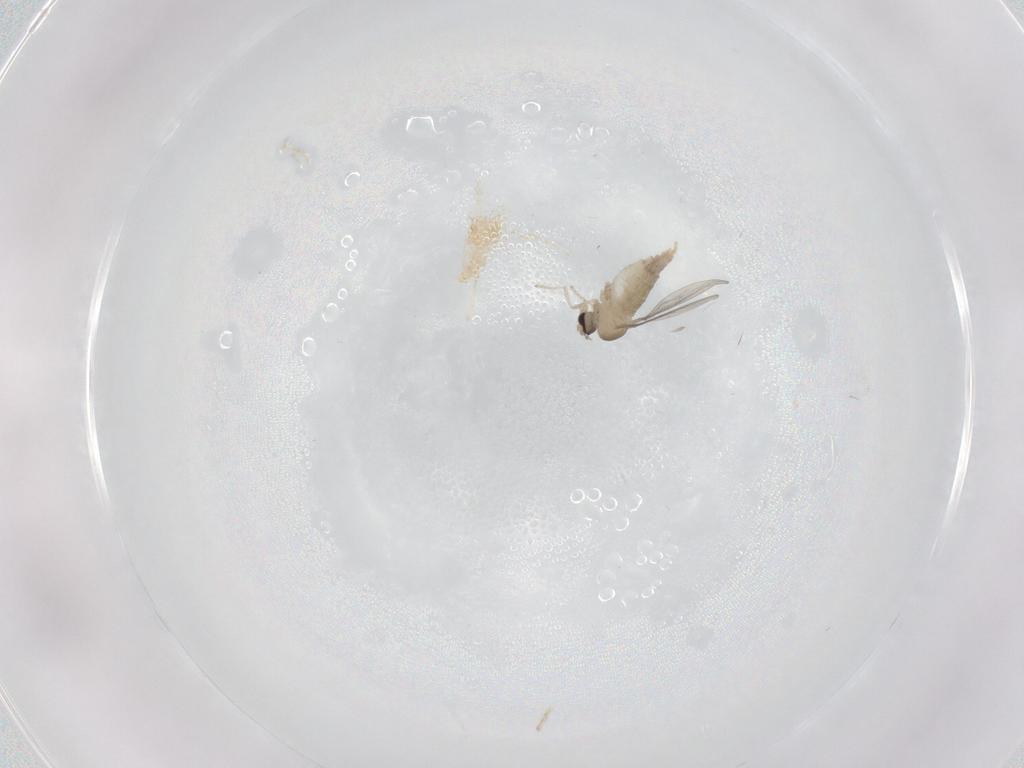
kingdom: Animalia
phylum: Arthropoda
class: Insecta
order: Diptera
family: Cecidomyiidae
